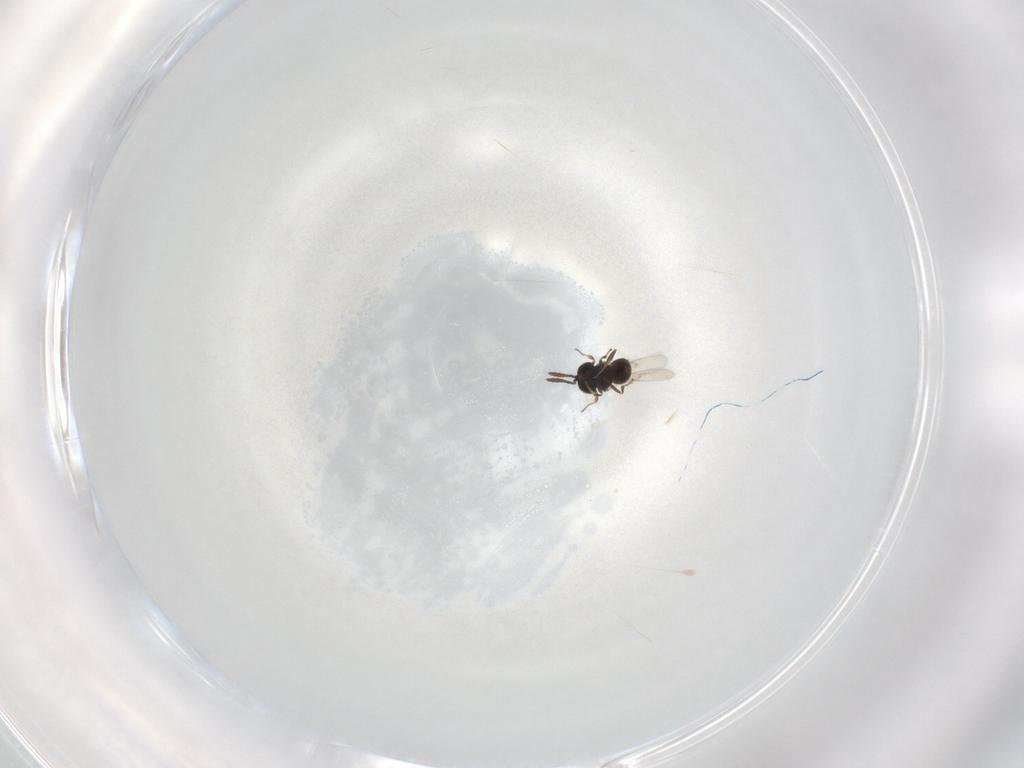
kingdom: Animalia
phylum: Arthropoda
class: Insecta
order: Hymenoptera
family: Scelionidae
